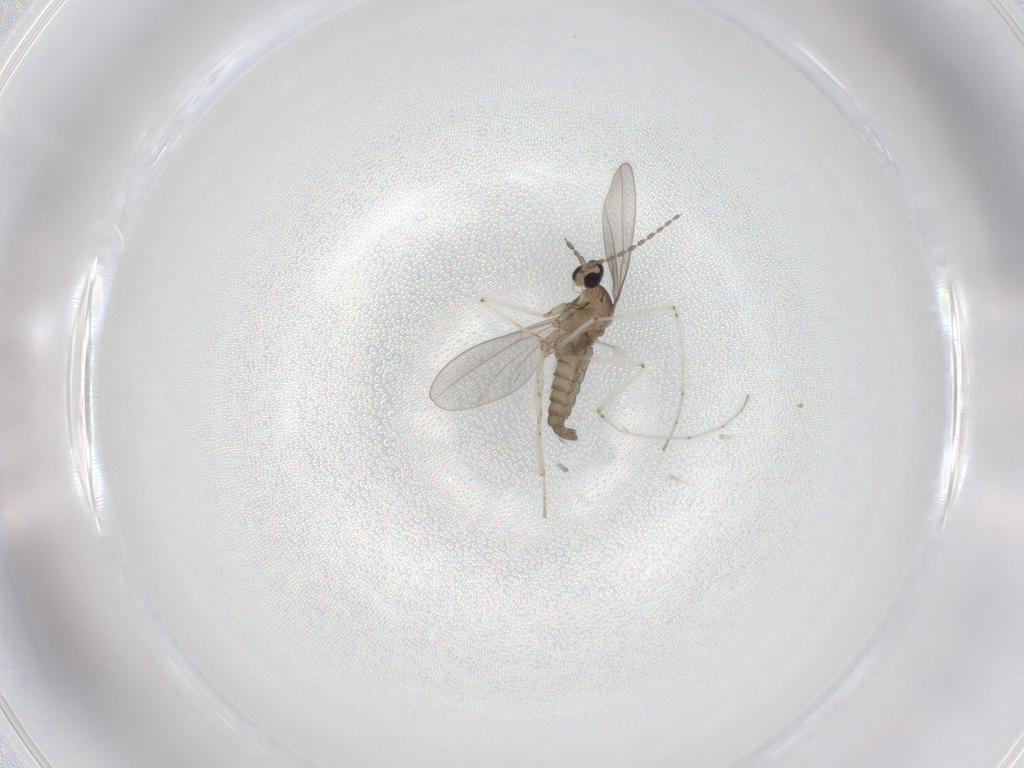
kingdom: Animalia
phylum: Arthropoda
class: Insecta
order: Diptera
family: Cecidomyiidae
